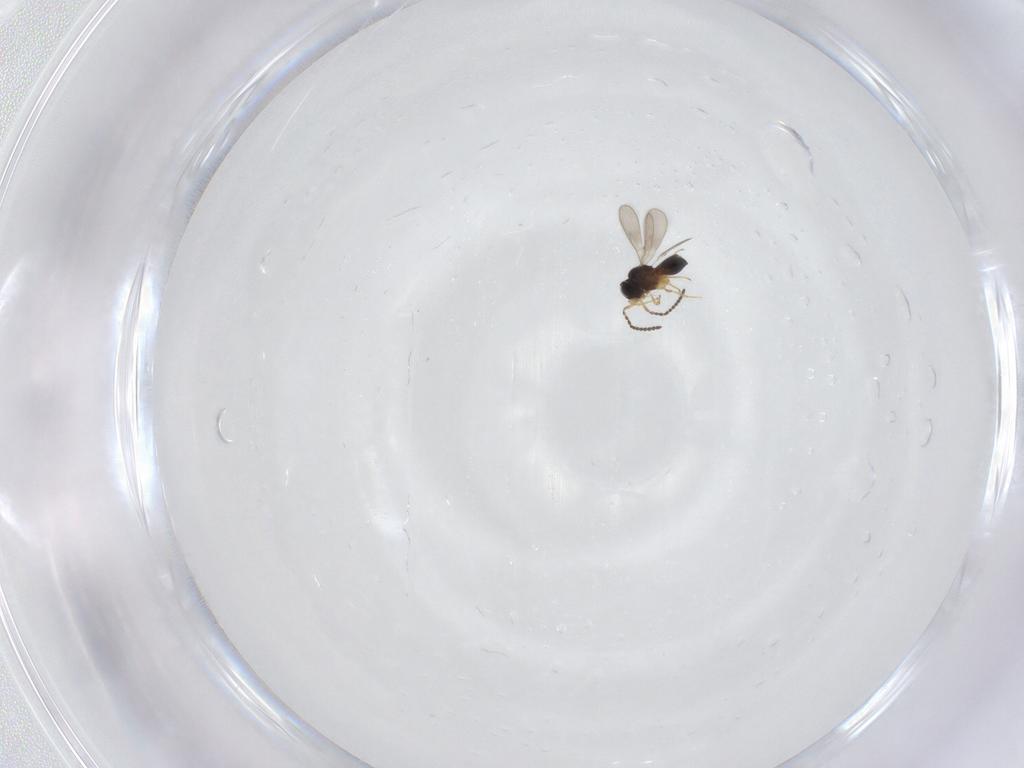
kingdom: Animalia
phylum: Arthropoda
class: Insecta
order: Hymenoptera
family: Scelionidae
